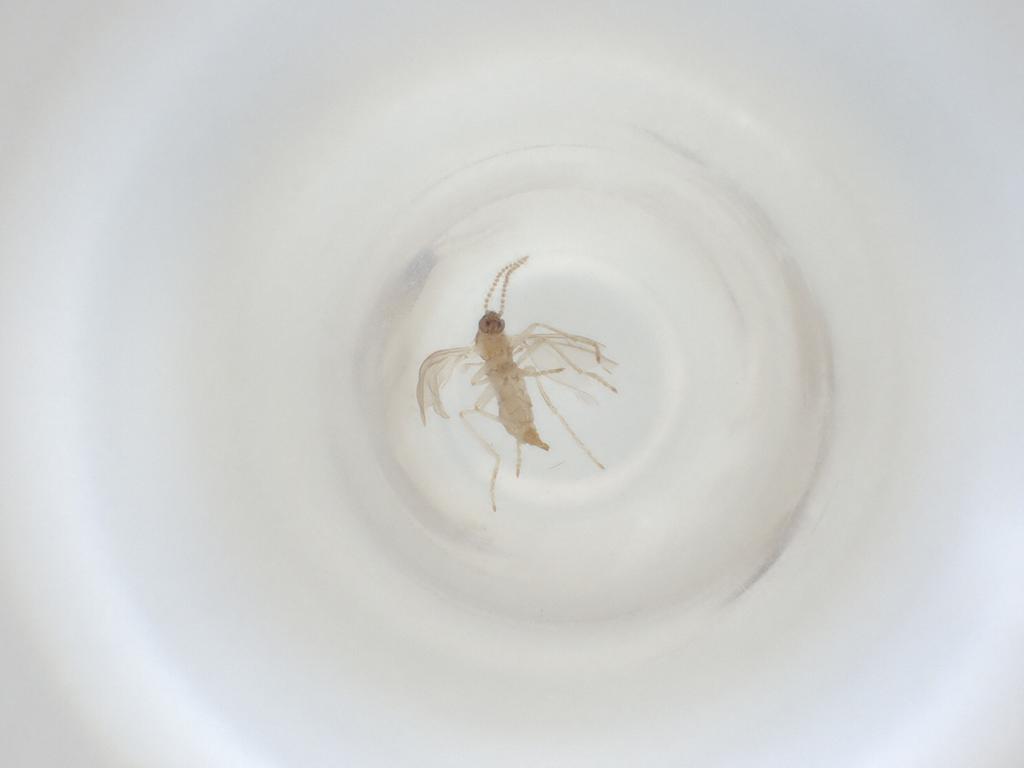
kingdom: Animalia
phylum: Arthropoda
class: Insecta
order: Diptera
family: Cecidomyiidae
